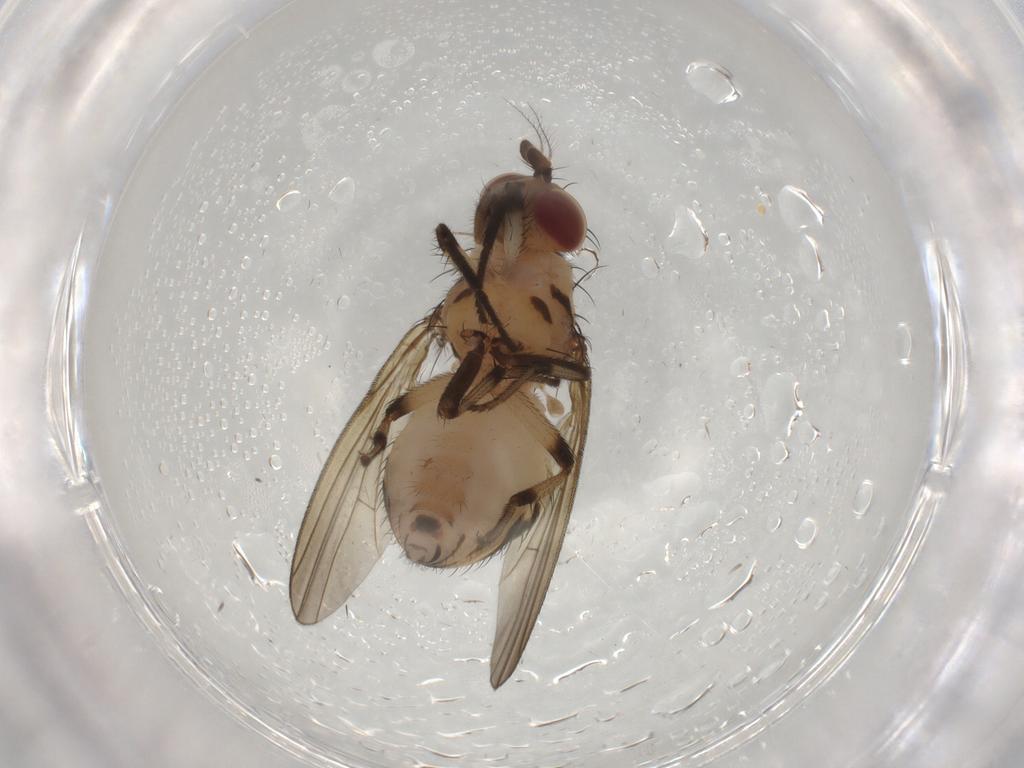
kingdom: Animalia
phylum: Arthropoda
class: Insecta
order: Diptera
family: Lauxaniidae
